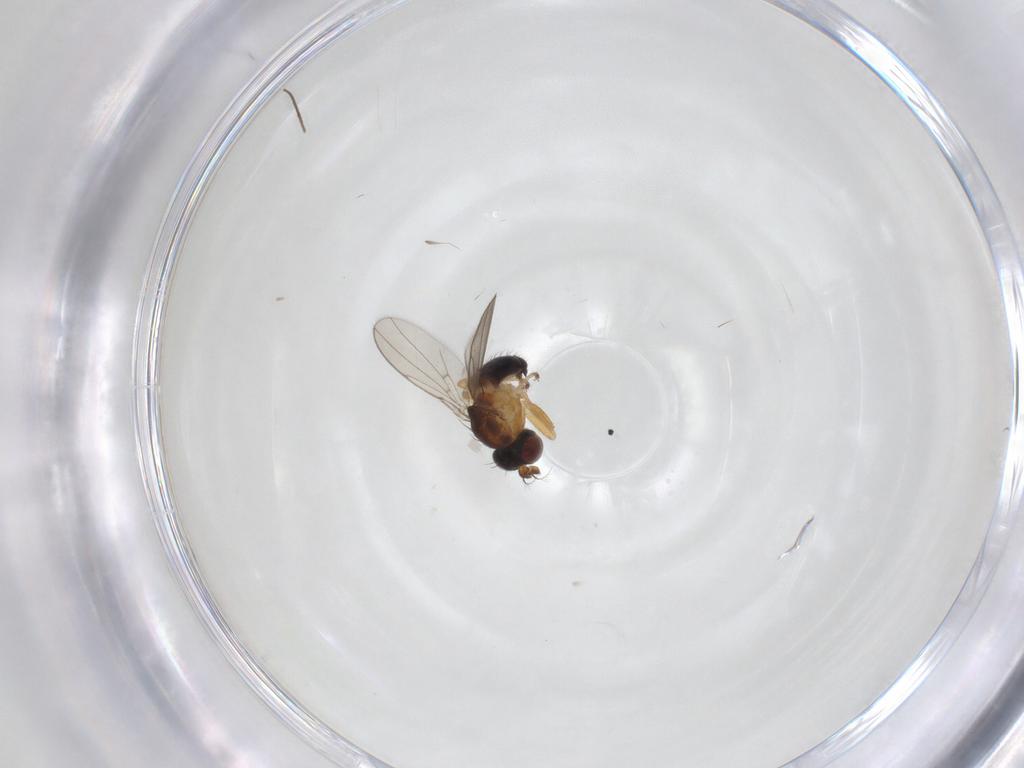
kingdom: Animalia
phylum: Arthropoda
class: Insecta
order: Diptera
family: Ephydridae
